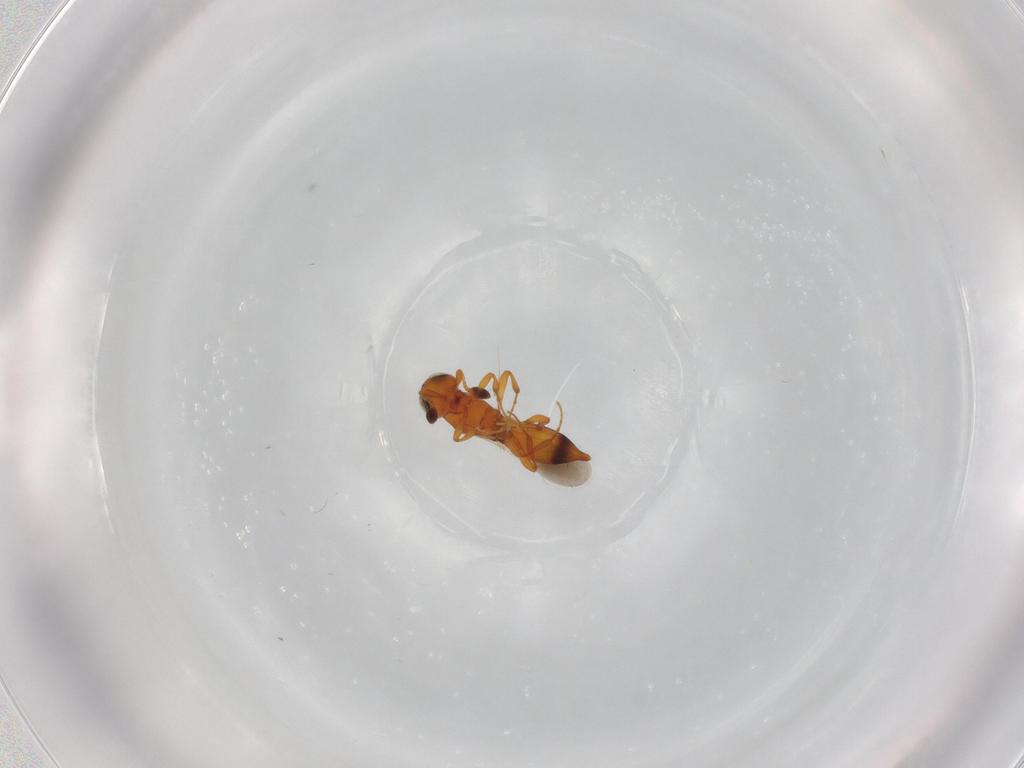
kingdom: Animalia
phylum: Arthropoda
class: Insecta
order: Hymenoptera
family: Platygastridae
